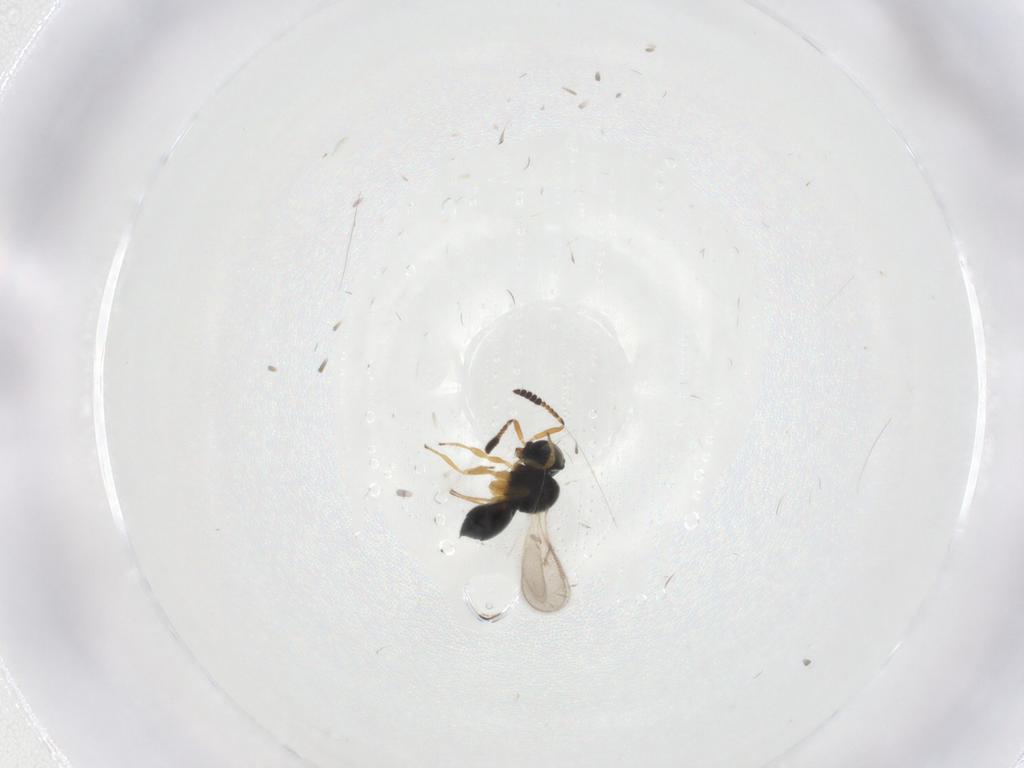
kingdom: Animalia
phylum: Arthropoda
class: Insecta
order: Hymenoptera
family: Scelionidae
